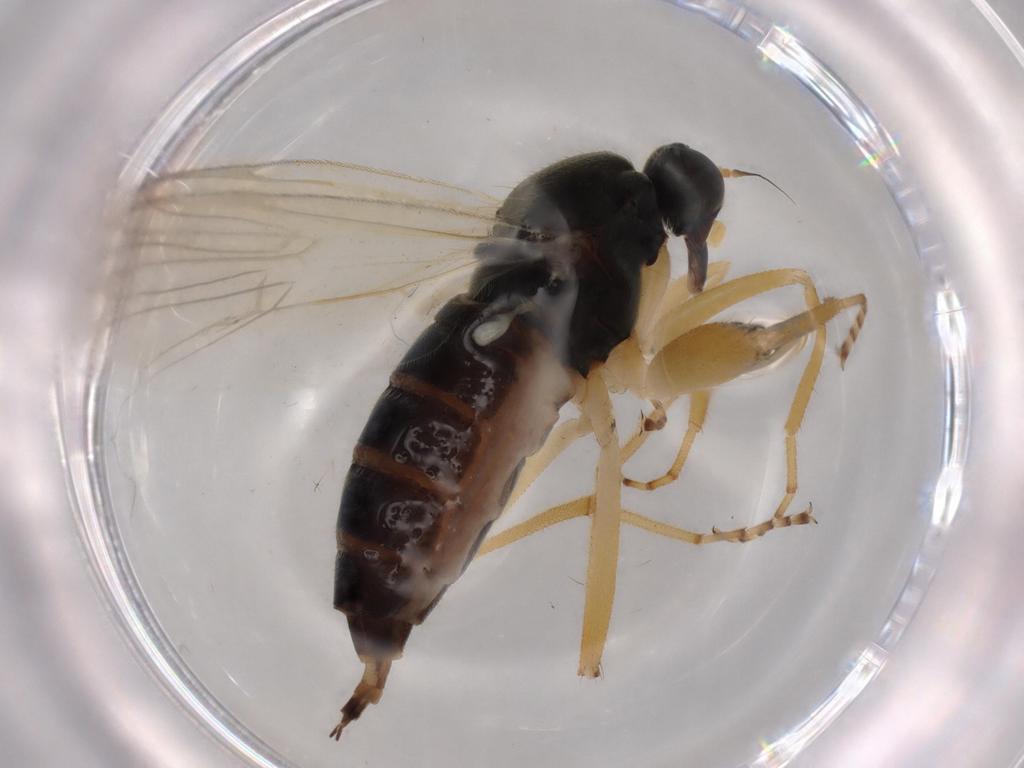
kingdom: Animalia
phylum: Arthropoda
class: Insecta
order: Diptera
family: Hybotidae
